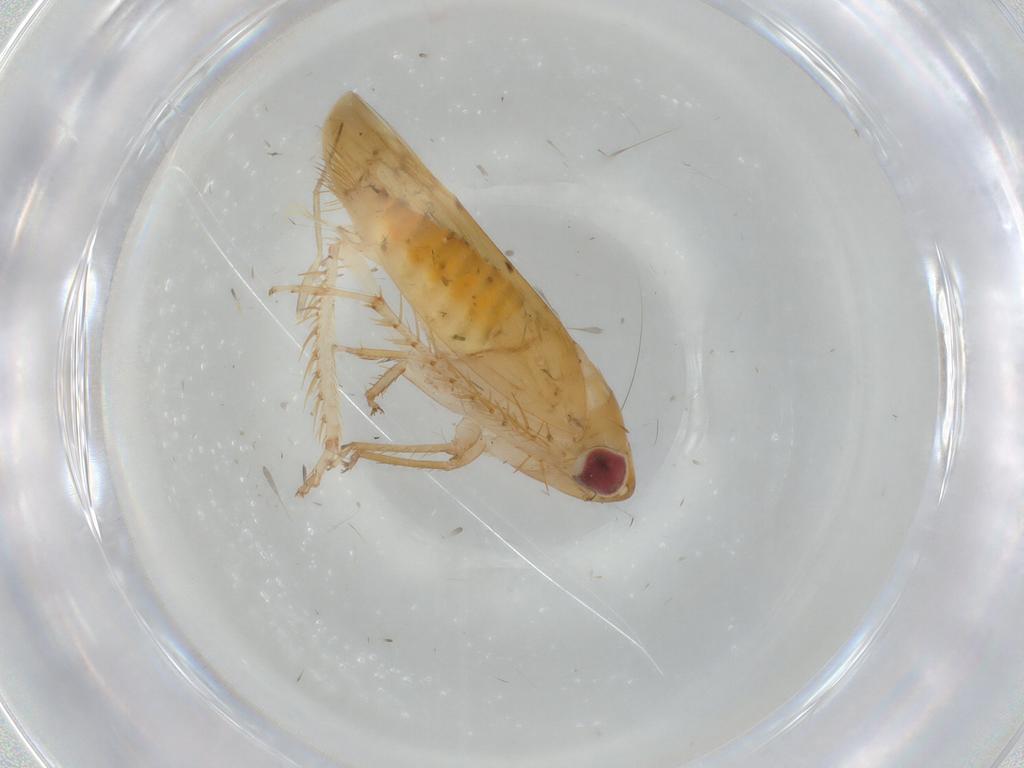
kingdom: Animalia
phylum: Arthropoda
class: Insecta
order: Hemiptera
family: Cicadellidae
